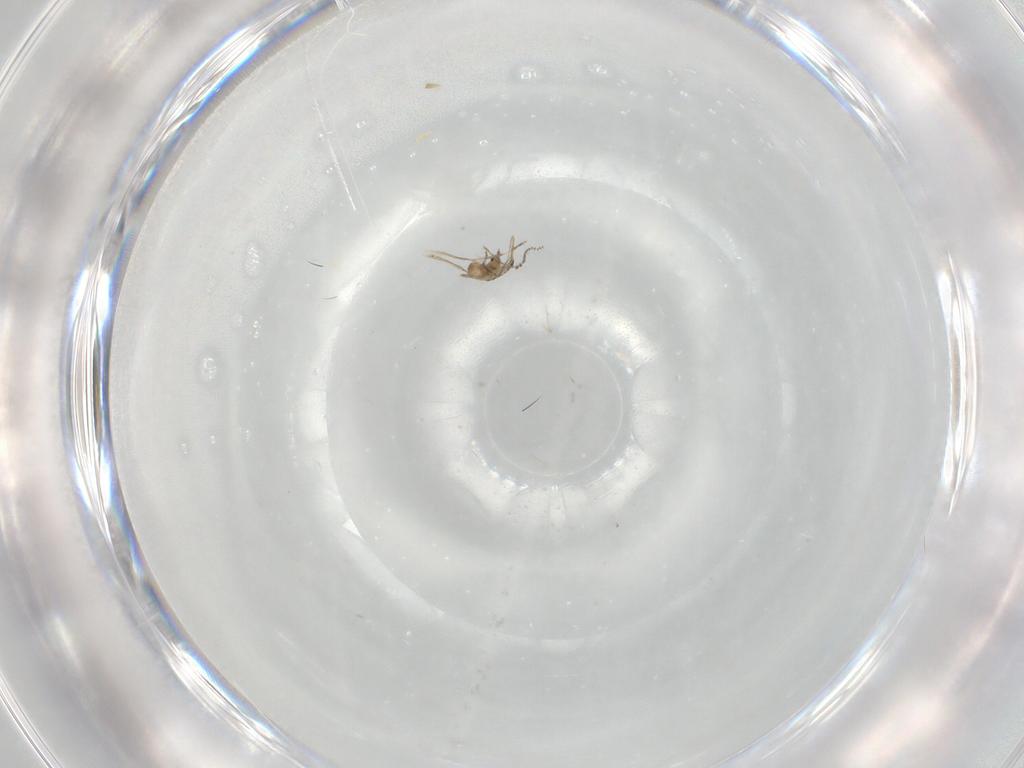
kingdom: Animalia
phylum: Arthropoda
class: Insecta
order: Diptera
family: Cecidomyiidae
